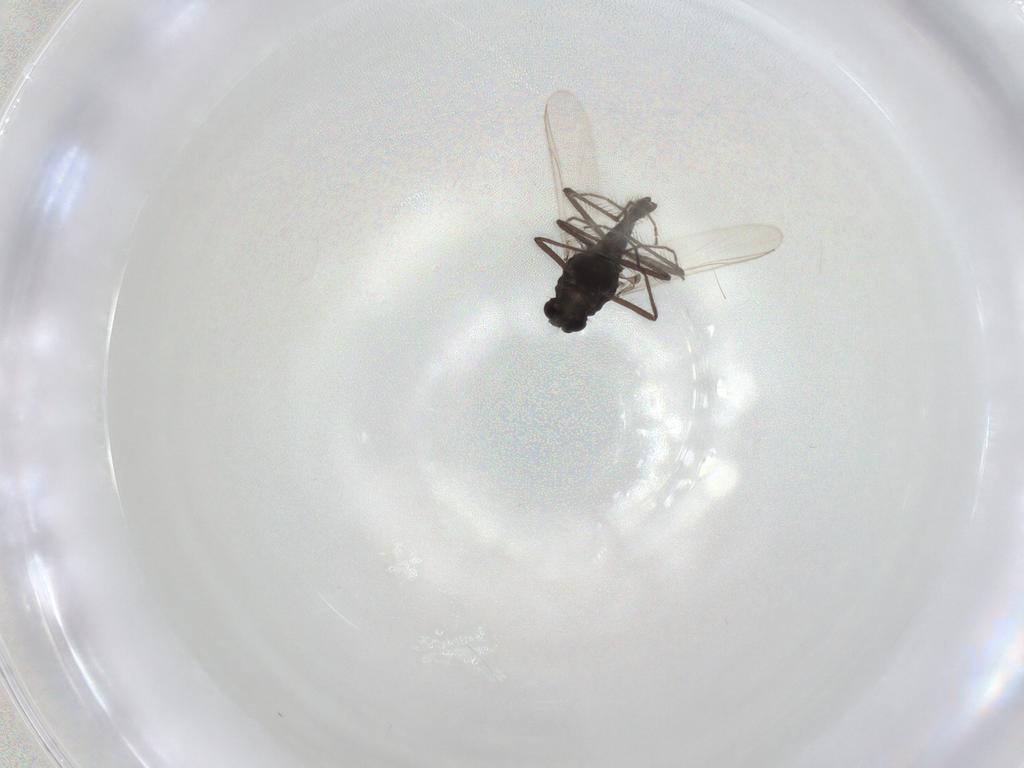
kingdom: Animalia
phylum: Arthropoda
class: Insecta
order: Diptera
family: Chironomidae
